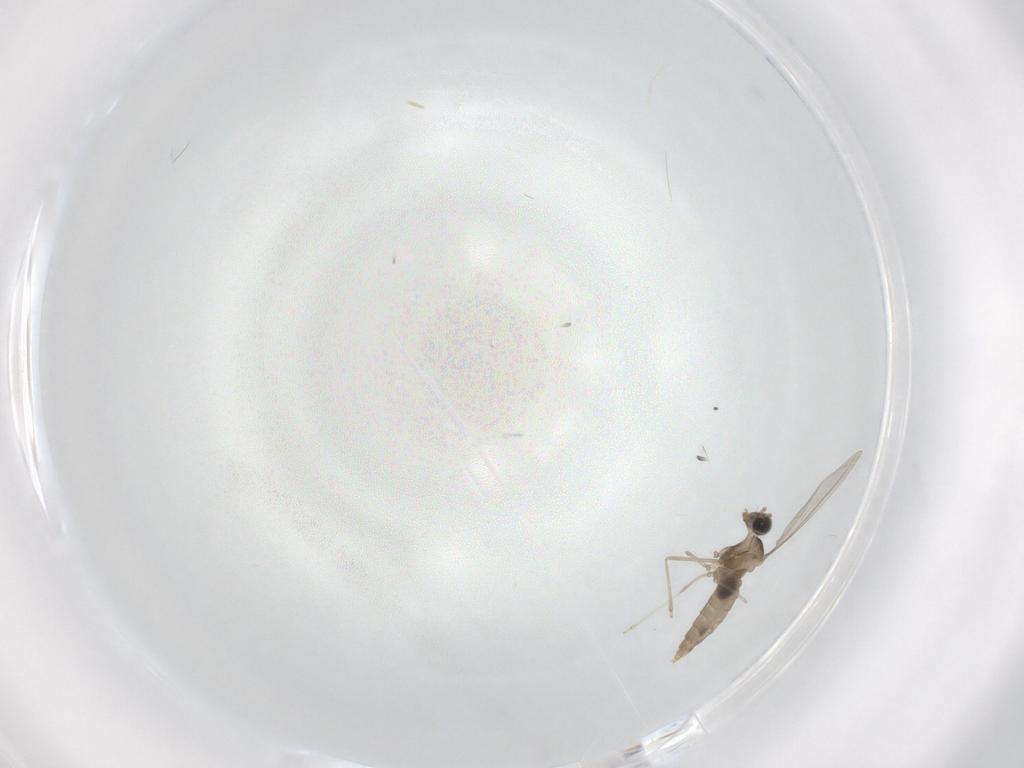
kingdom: Animalia
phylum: Arthropoda
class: Insecta
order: Diptera
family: Cecidomyiidae
